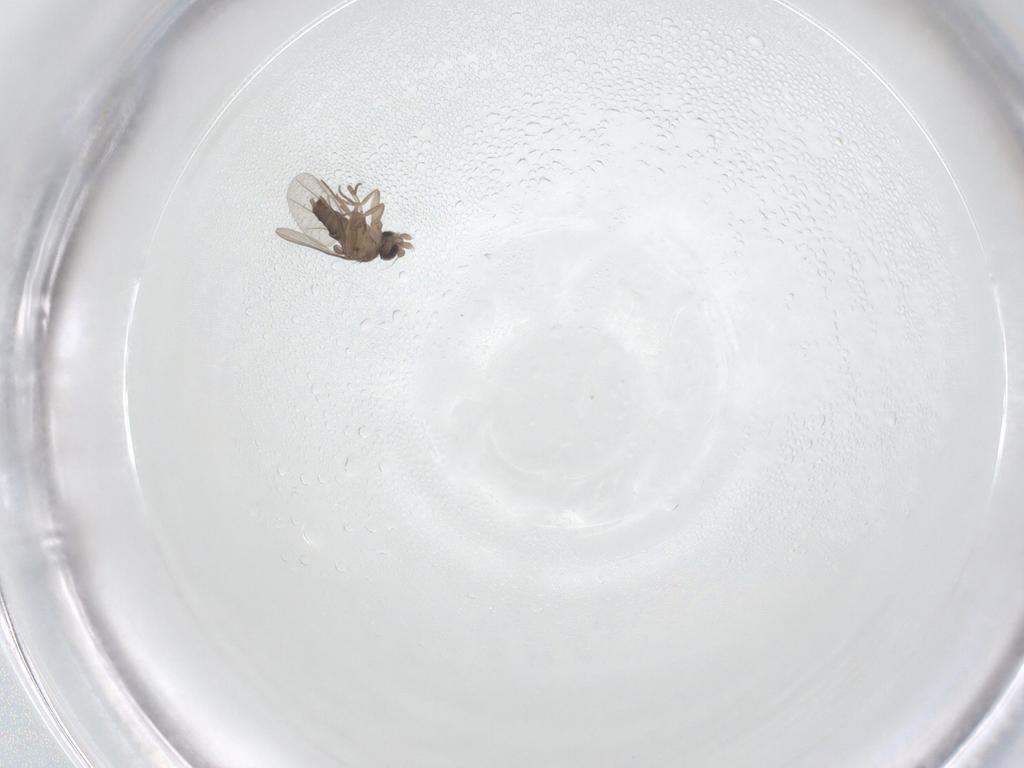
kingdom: Animalia
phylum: Arthropoda
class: Insecta
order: Diptera
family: Phoridae
